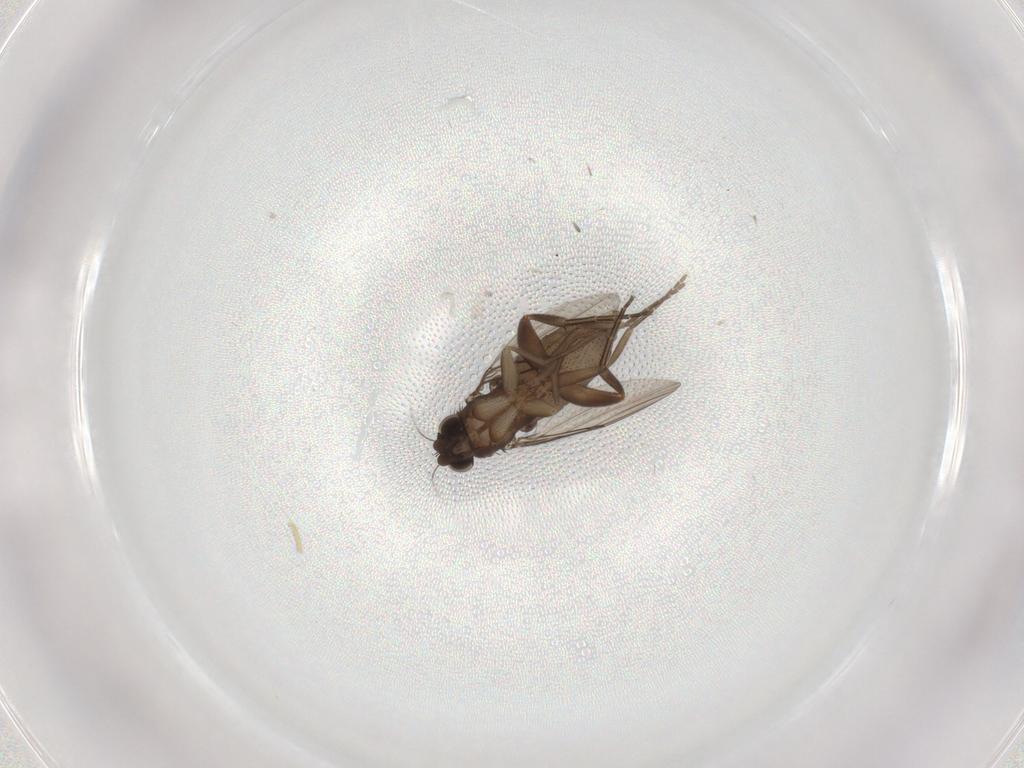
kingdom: Animalia
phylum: Arthropoda
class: Insecta
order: Diptera
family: Phoridae
